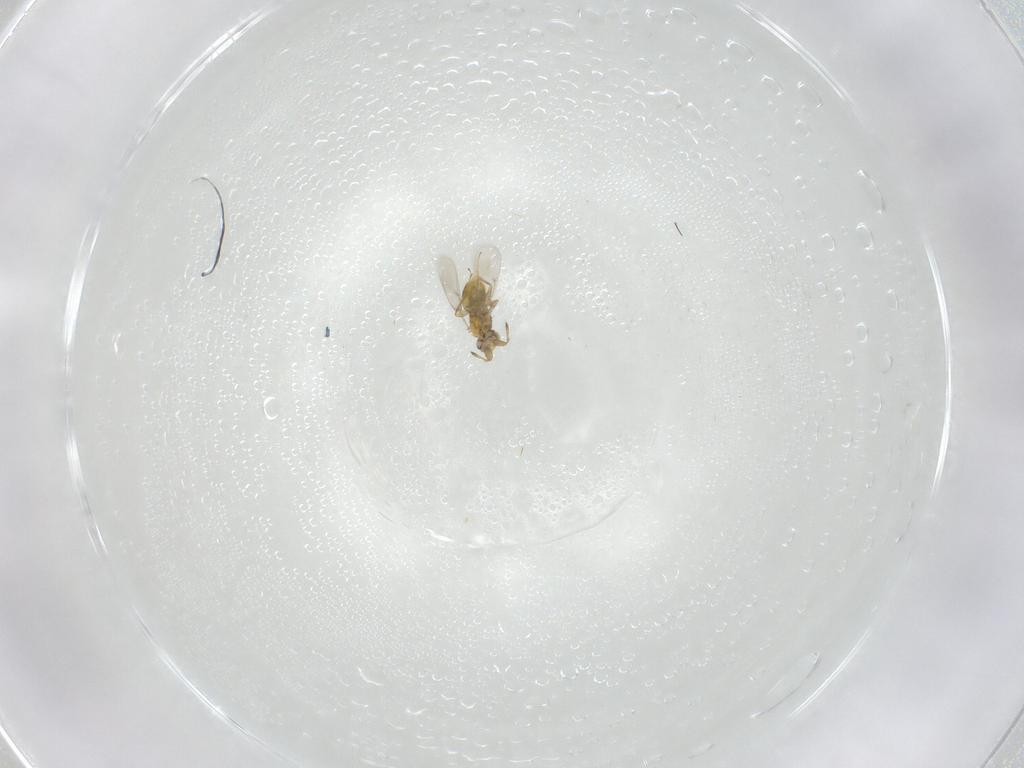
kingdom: Animalia
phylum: Arthropoda
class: Insecta
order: Hymenoptera
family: Aphelinidae
